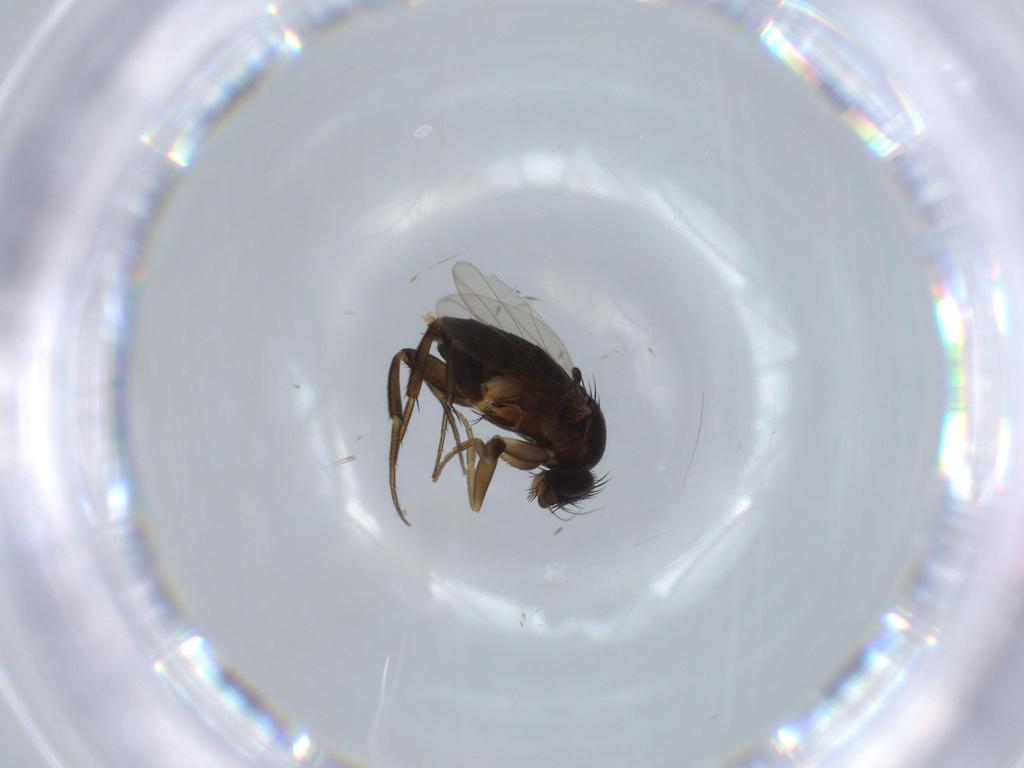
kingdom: Animalia
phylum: Arthropoda
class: Insecta
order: Diptera
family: Phoridae
